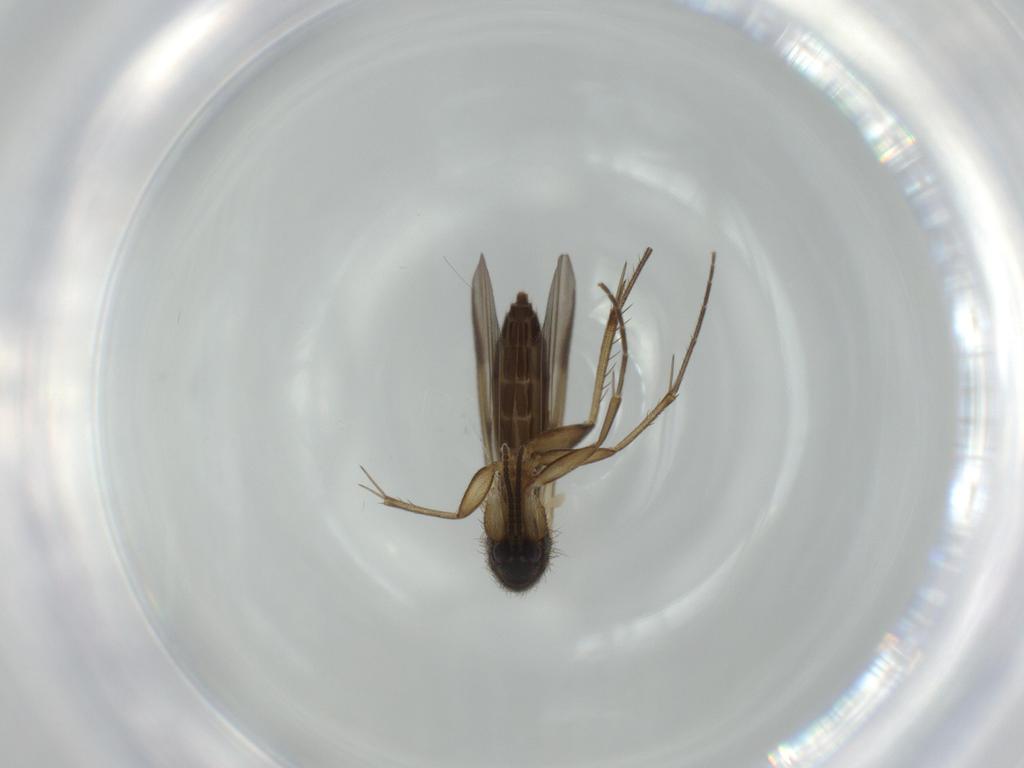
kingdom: Animalia
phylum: Arthropoda
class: Insecta
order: Diptera
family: Mycetophilidae
